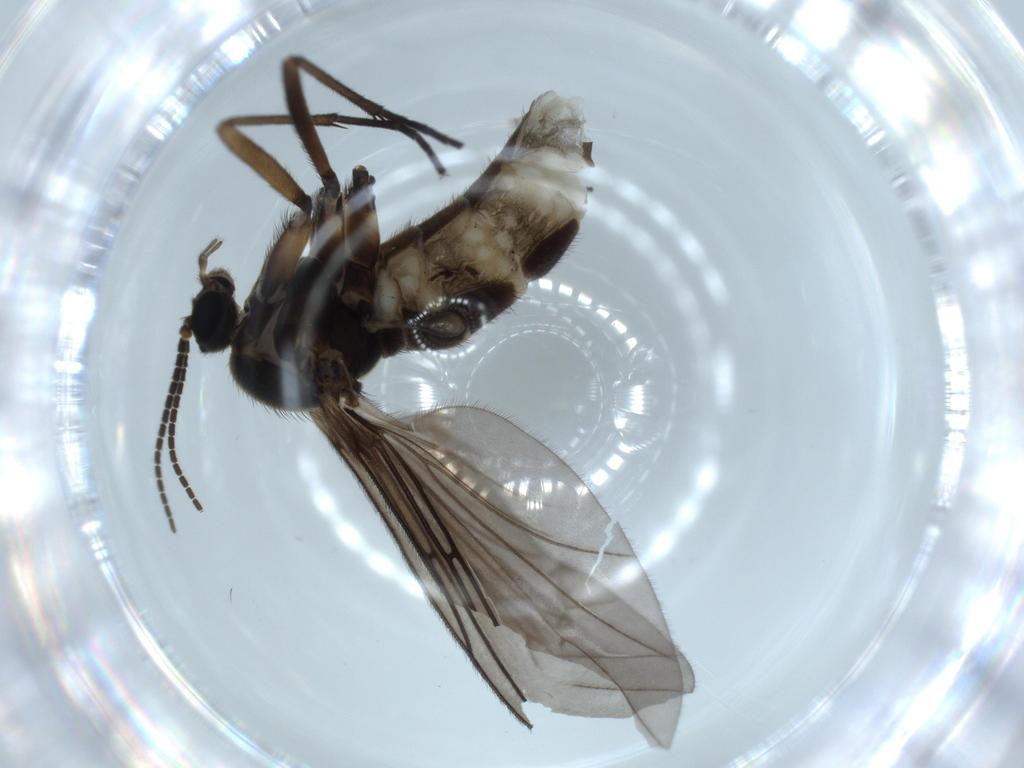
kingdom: Animalia
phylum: Arthropoda
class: Insecta
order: Diptera
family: Sciaridae
